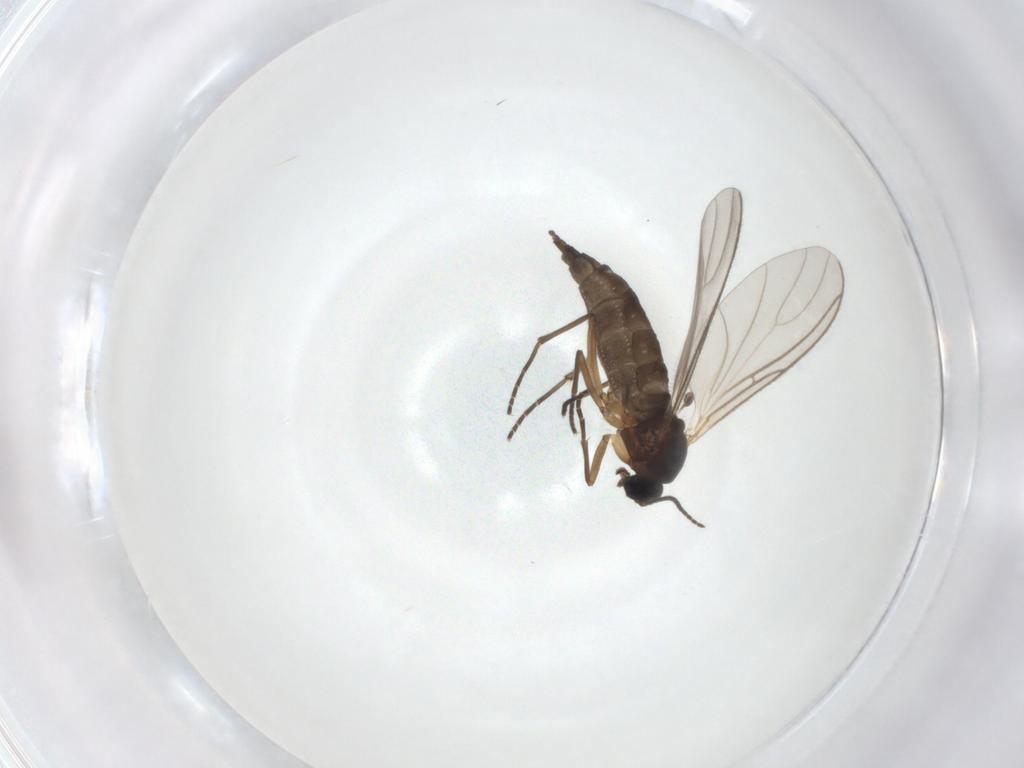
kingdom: Animalia
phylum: Arthropoda
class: Insecta
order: Diptera
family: Sciaridae
